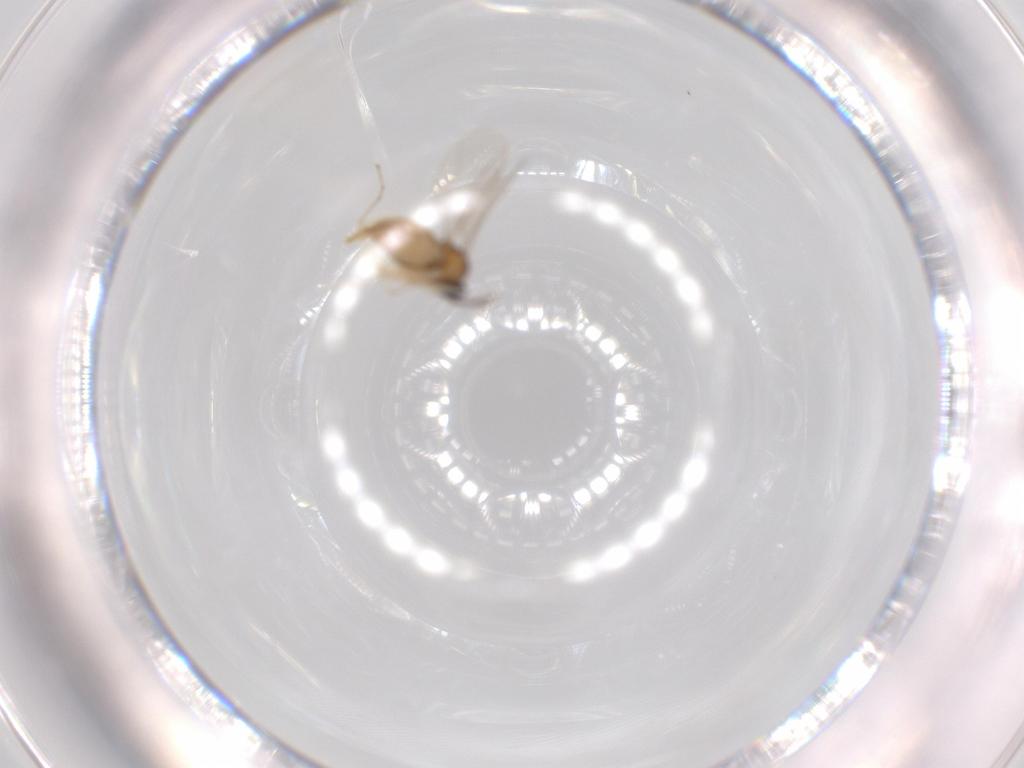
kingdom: Animalia
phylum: Arthropoda
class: Insecta
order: Diptera
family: Cecidomyiidae
